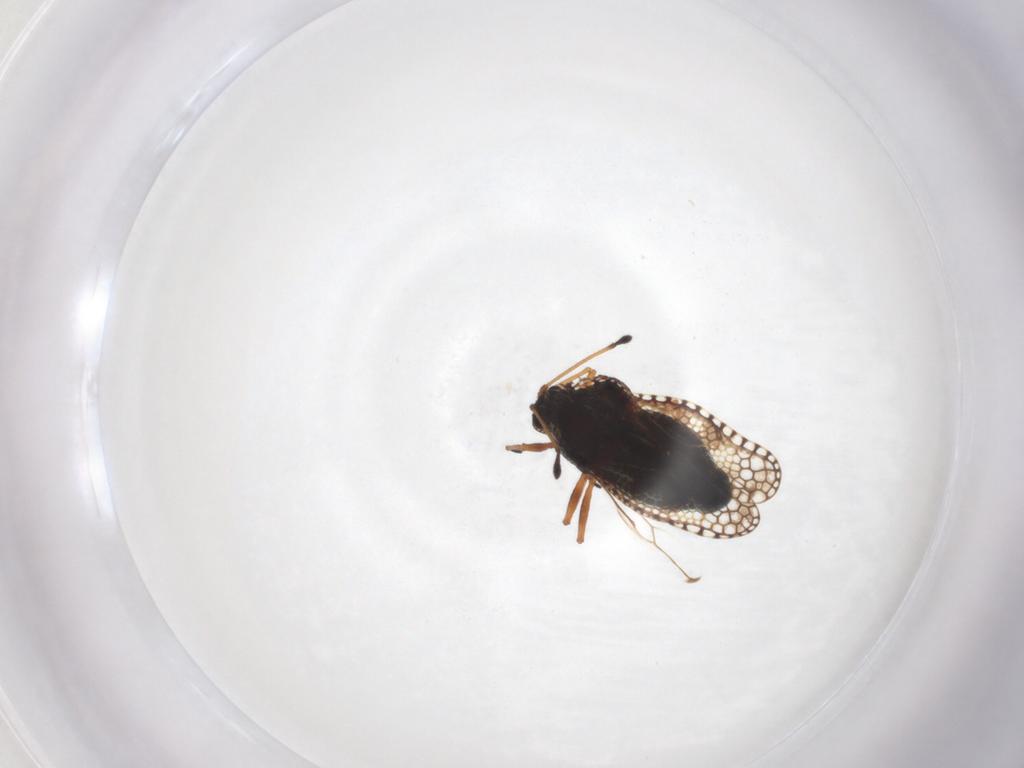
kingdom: Animalia
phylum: Arthropoda
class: Insecta
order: Hemiptera
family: Tingidae
